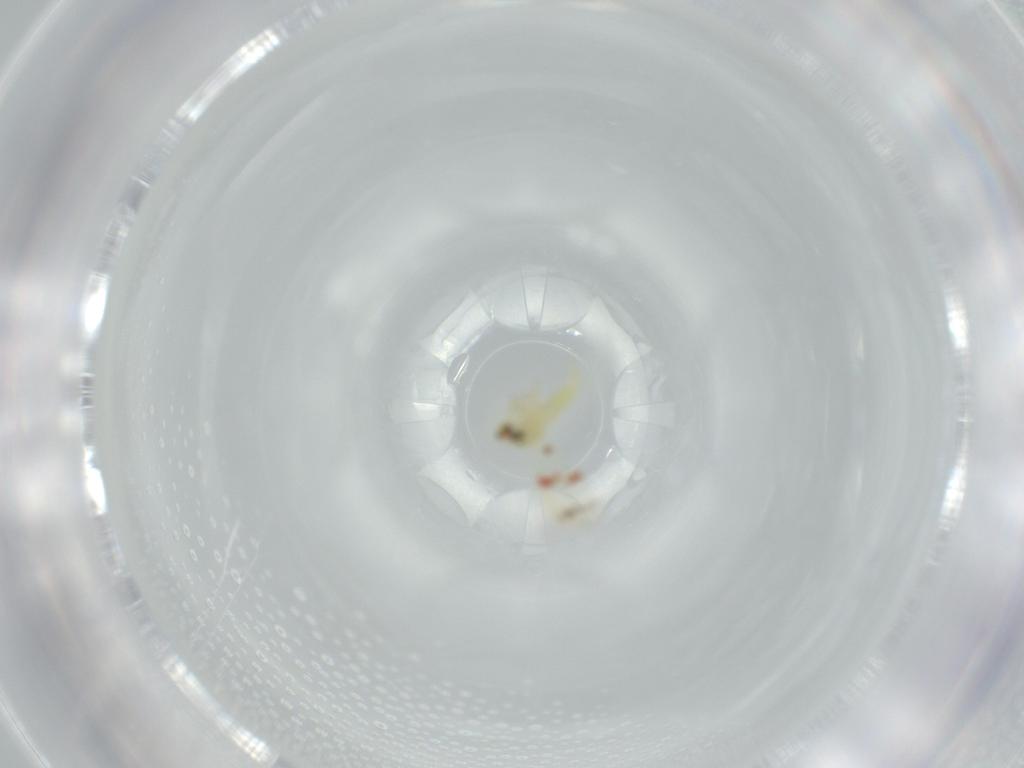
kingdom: Animalia
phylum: Arthropoda
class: Insecta
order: Hemiptera
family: Aleyrodidae
